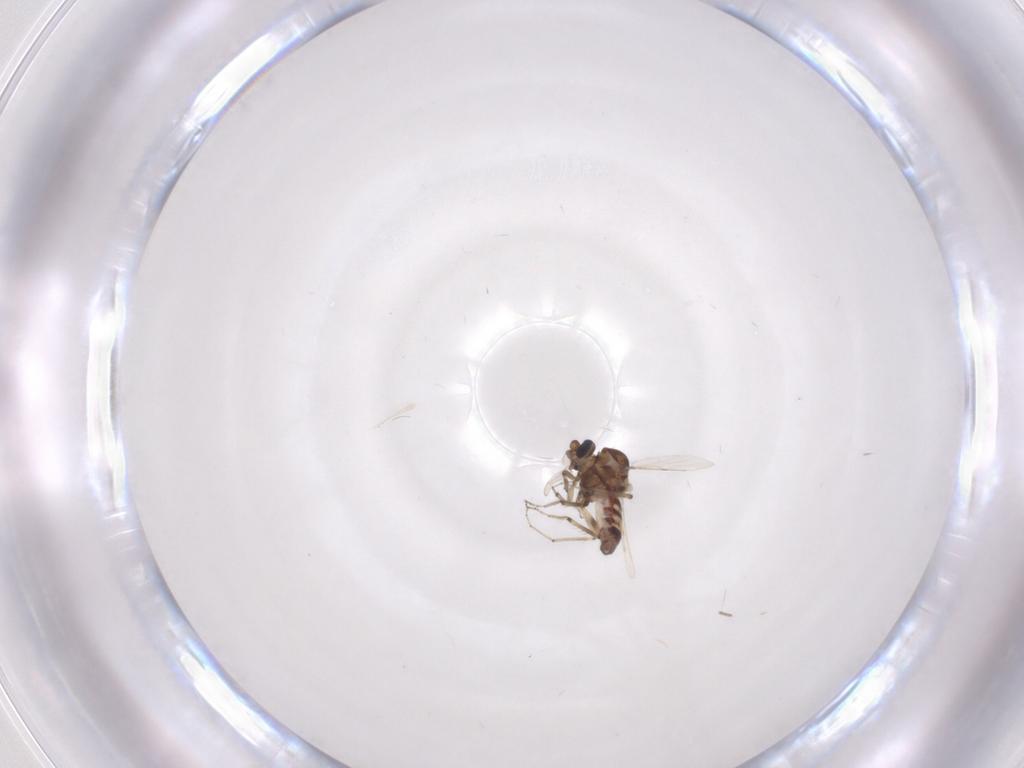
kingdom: Animalia
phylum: Arthropoda
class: Insecta
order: Diptera
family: Ceratopogonidae
